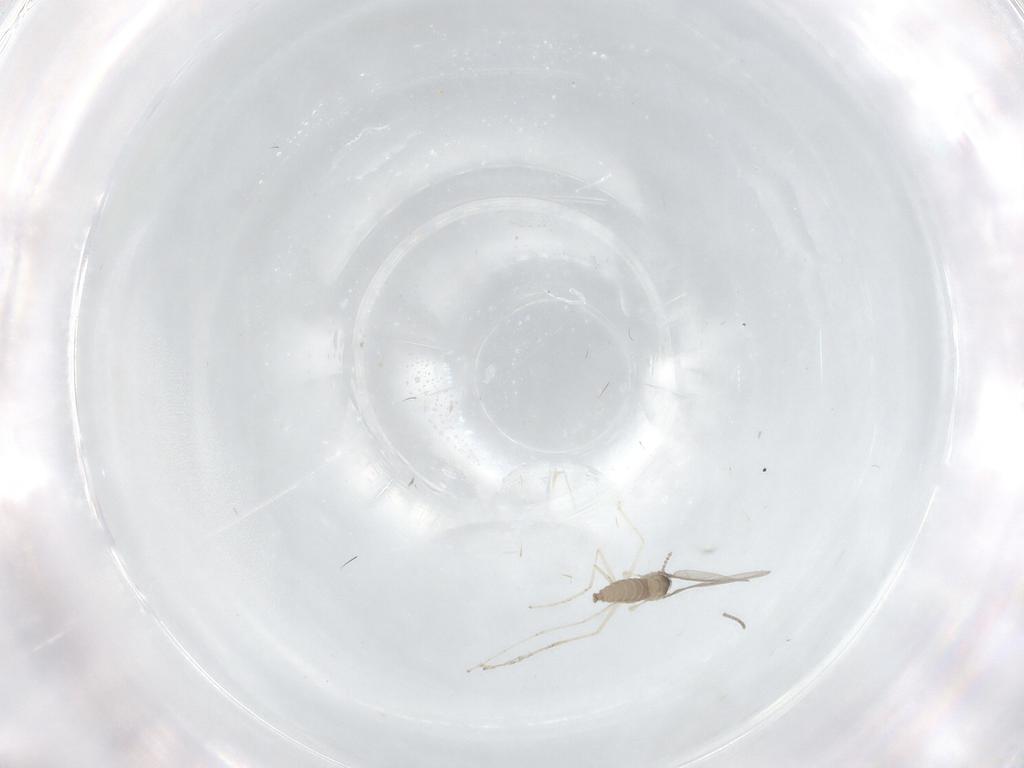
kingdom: Animalia
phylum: Arthropoda
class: Insecta
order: Diptera
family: Cecidomyiidae
